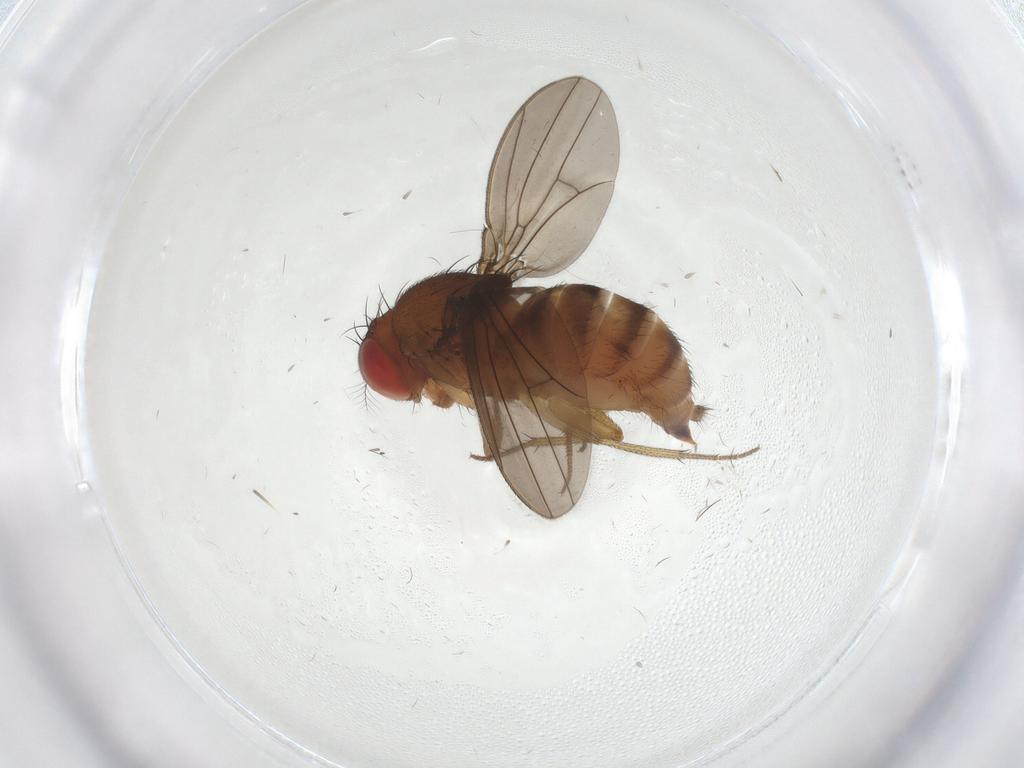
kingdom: Animalia
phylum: Arthropoda
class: Insecta
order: Diptera
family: Drosophilidae
